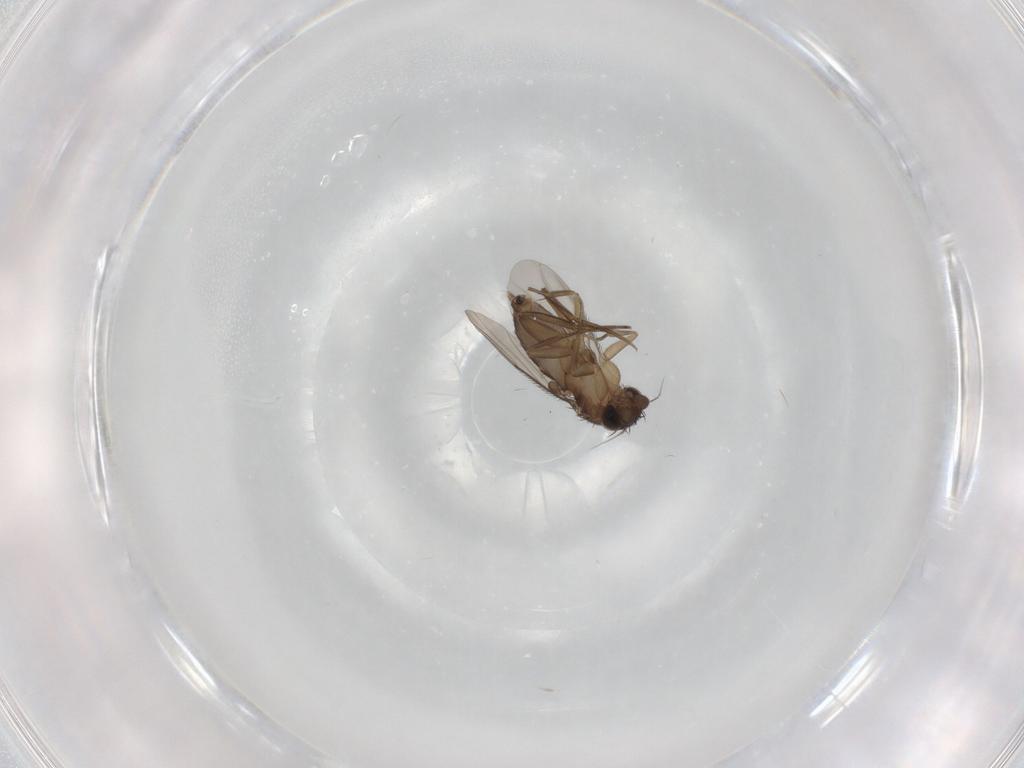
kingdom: Animalia
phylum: Arthropoda
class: Insecta
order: Diptera
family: Phoridae
